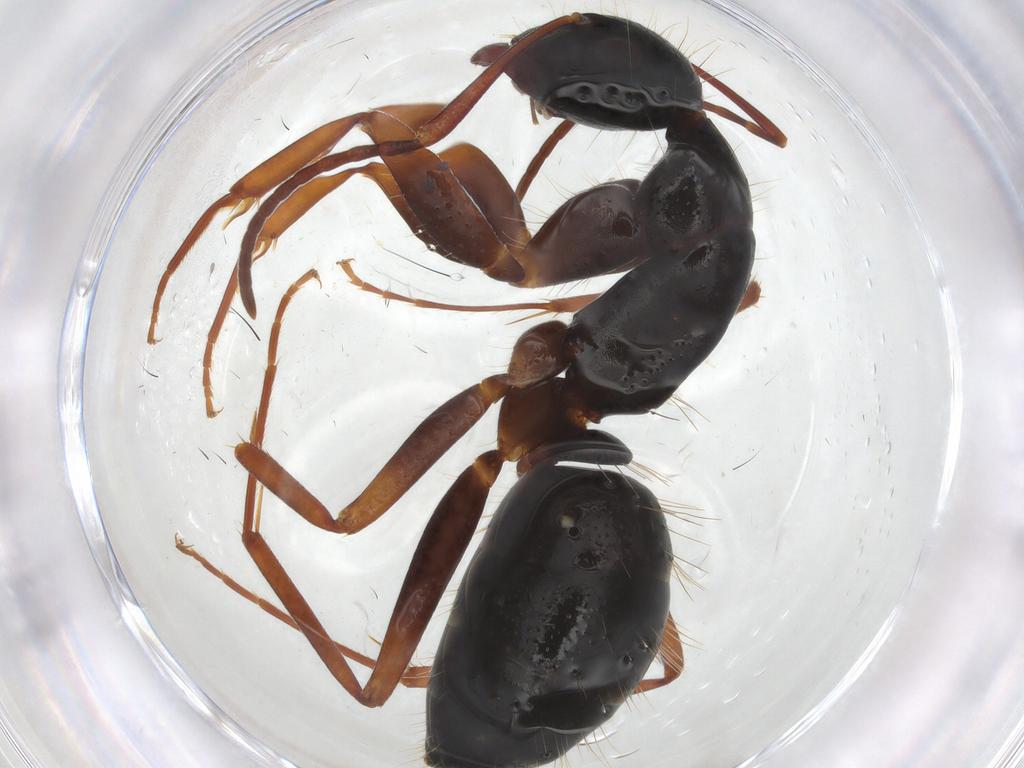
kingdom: Animalia
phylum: Arthropoda
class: Insecta
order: Hymenoptera
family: Formicidae
